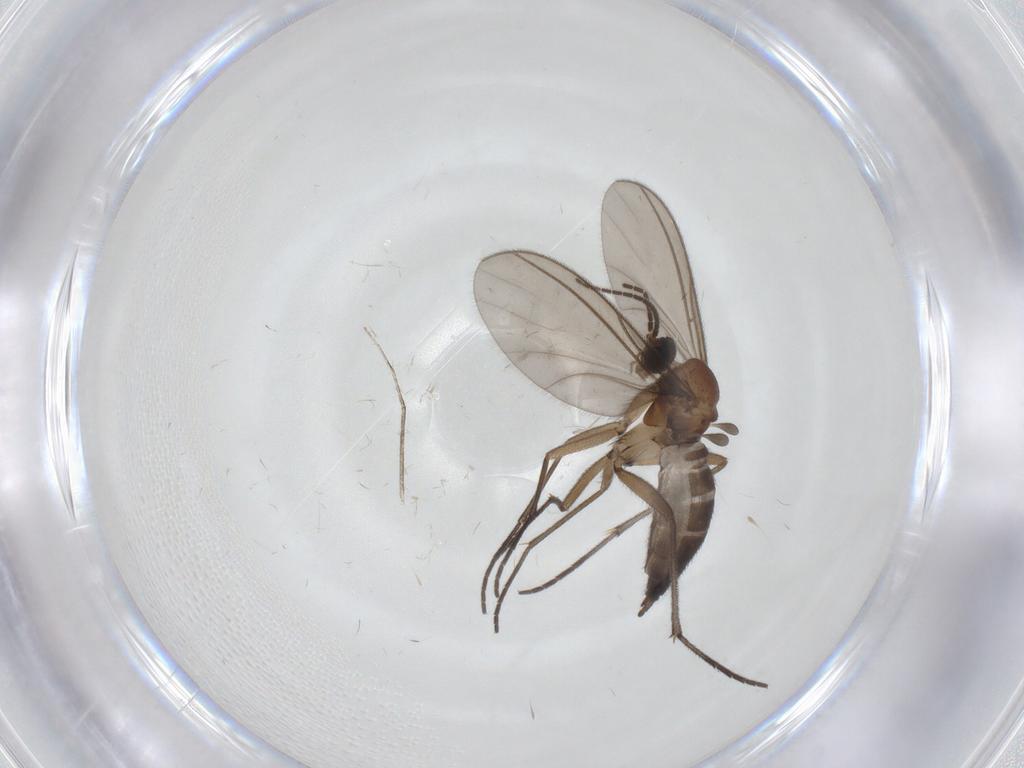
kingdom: Animalia
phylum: Arthropoda
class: Insecta
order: Diptera
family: Sciaridae
